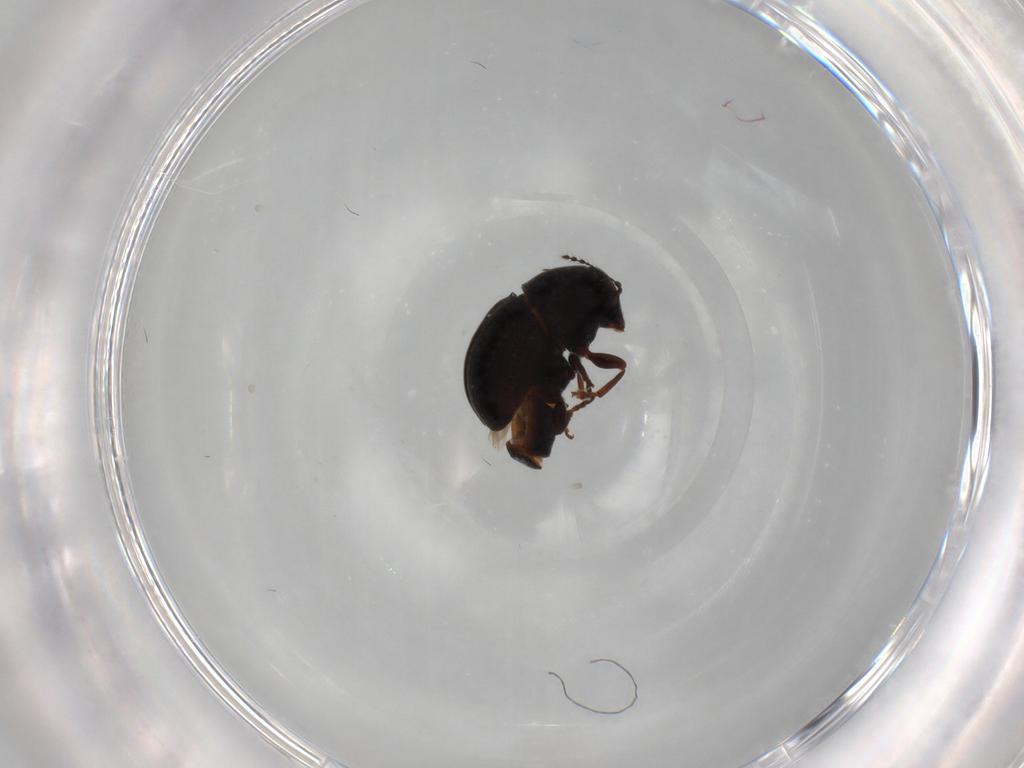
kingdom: Animalia
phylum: Arthropoda
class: Insecta
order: Coleoptera
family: Anthribidae
